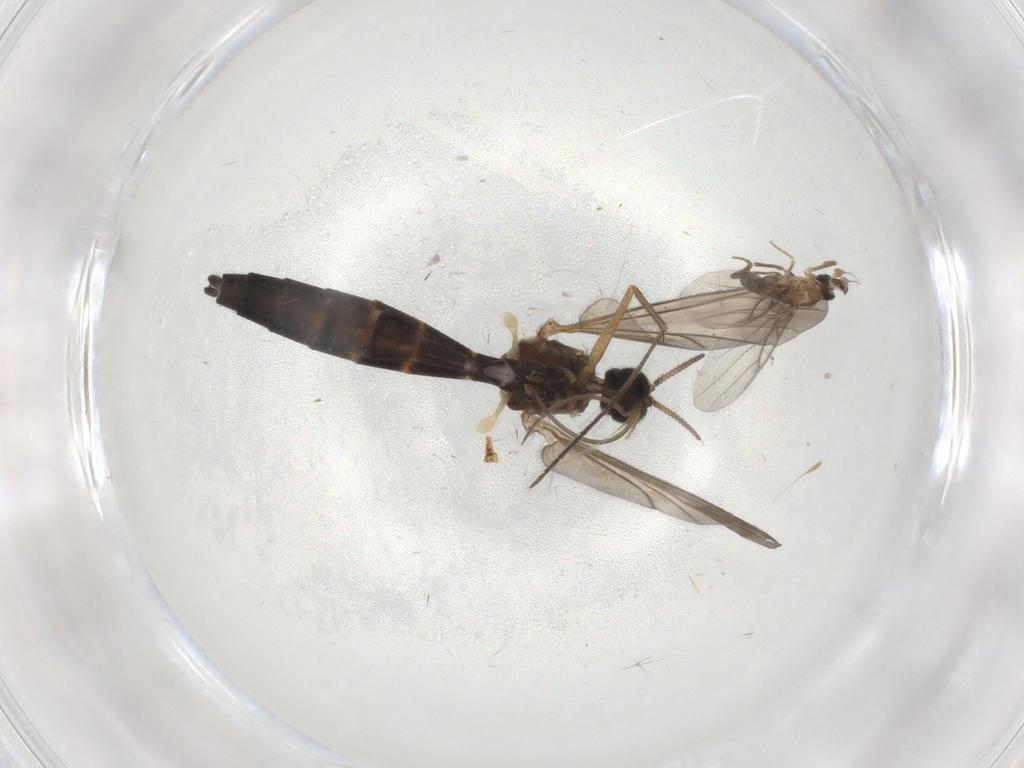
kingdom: Animalia
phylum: Arthropoda
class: Insecta
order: Diptera
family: Keroplatidae
